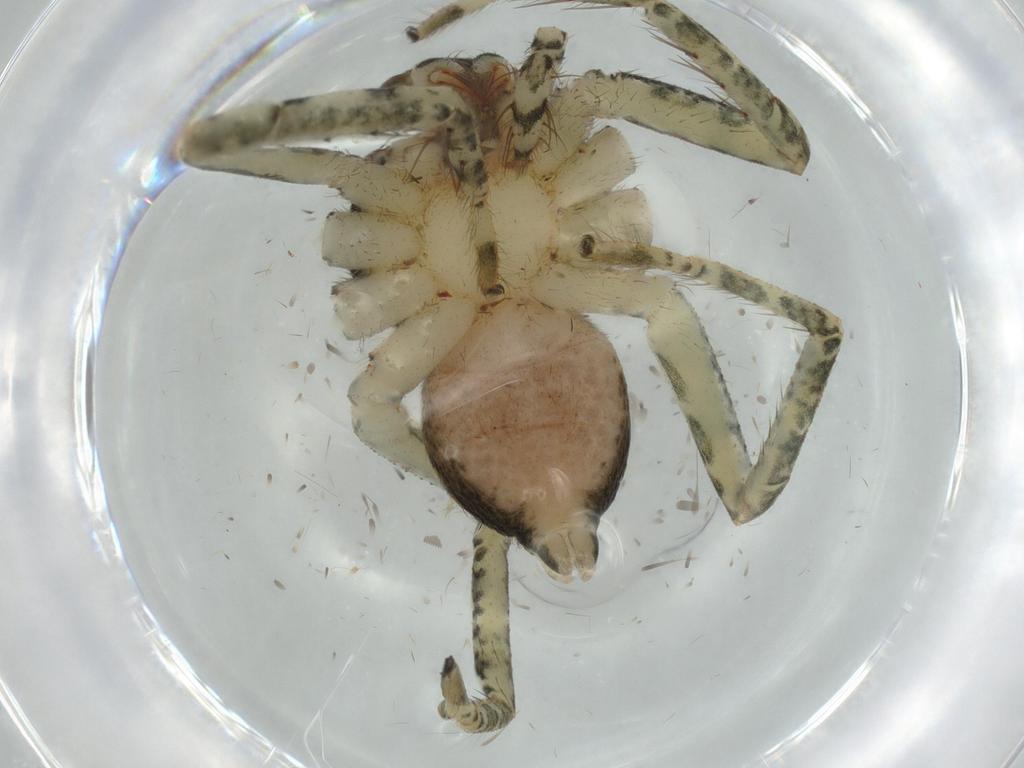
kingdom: Animalia
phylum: Arthropoda
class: Arachnida
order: Araneae
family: Selenopidae
